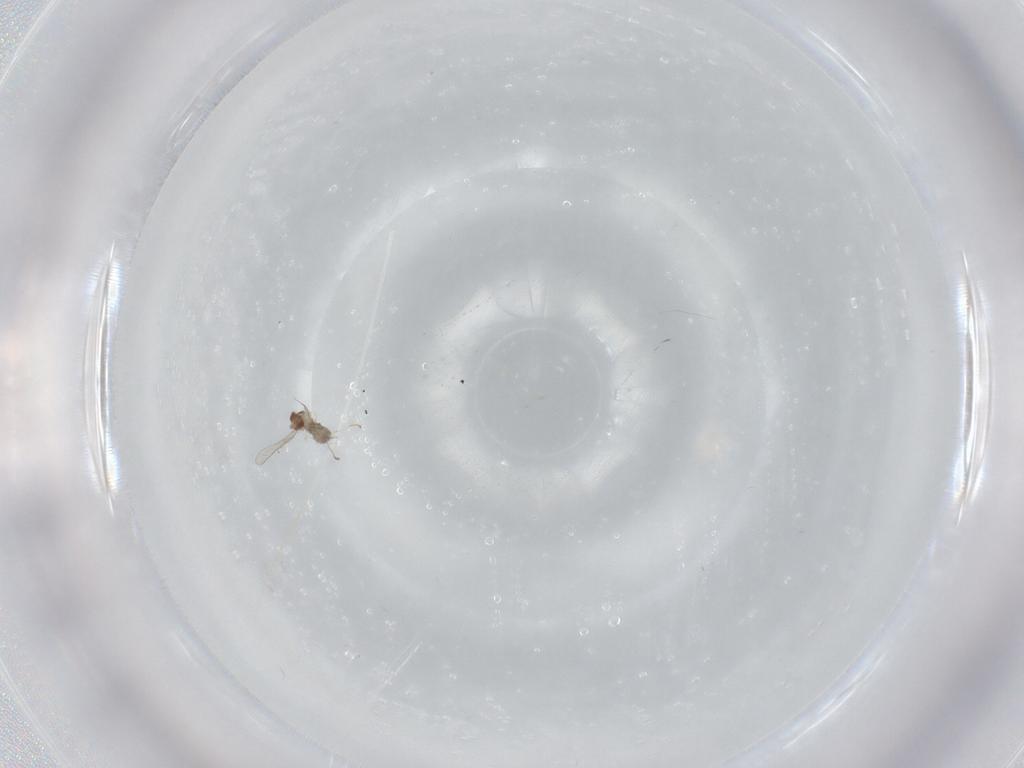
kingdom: Animalia
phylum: Arthropoda
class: Insecta
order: Diptera
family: Cecidomyiidae
